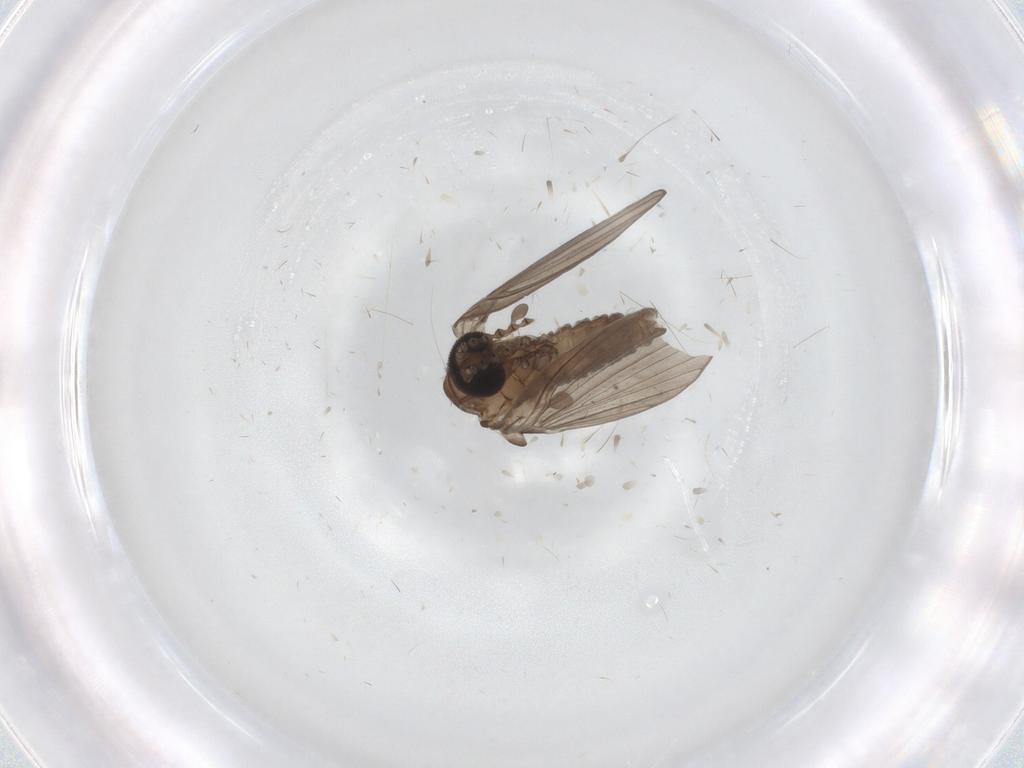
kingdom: Animalia
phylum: Arthropoda
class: Insecta
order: Diptera
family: Psychodidae
